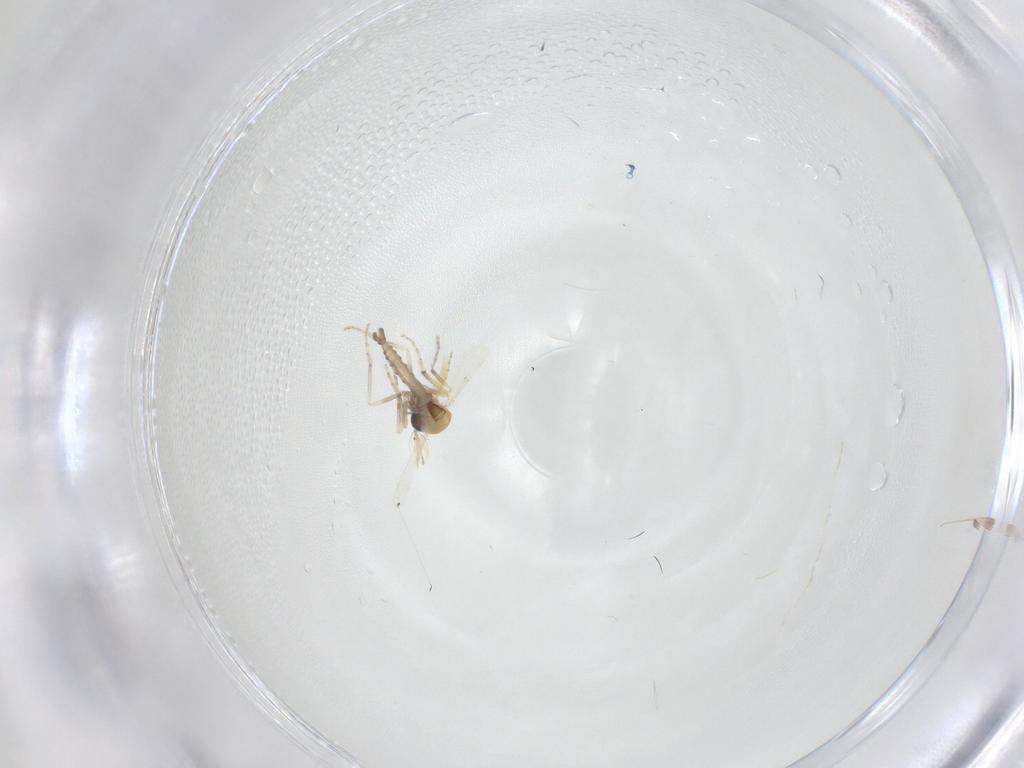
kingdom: Animalia
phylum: Arthropoda
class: Insecta
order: Diptera
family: Ceratopogonidae
